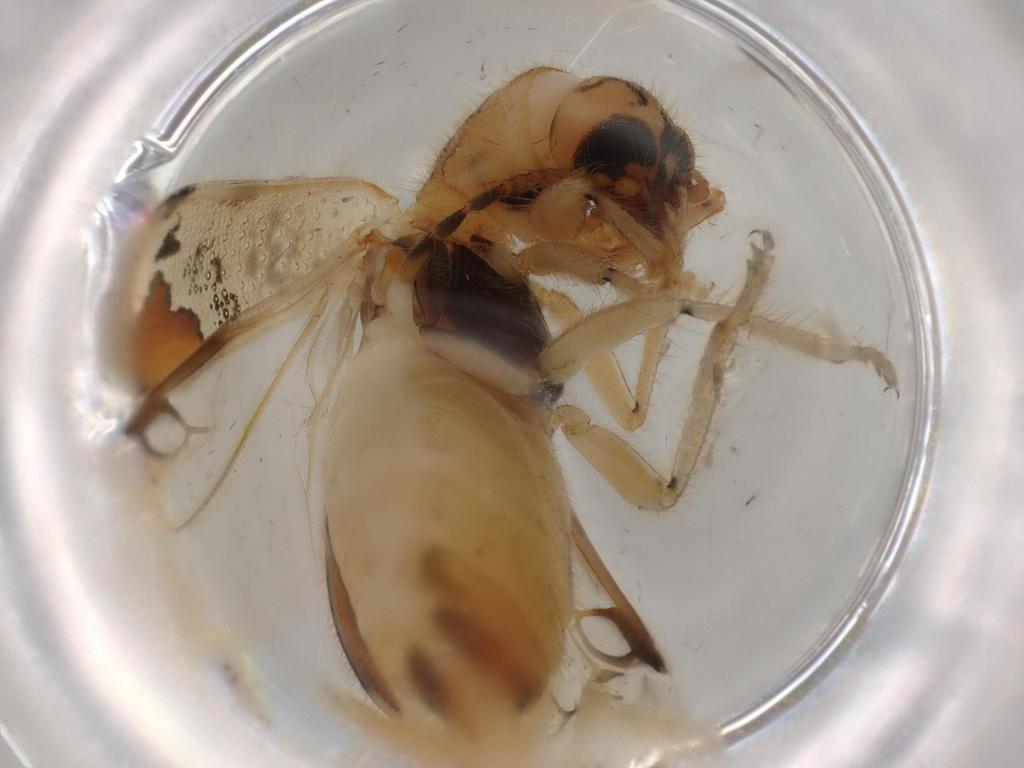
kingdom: Animalia
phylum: Arthropoda
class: Insecta
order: Coleoptera
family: Cleridae
